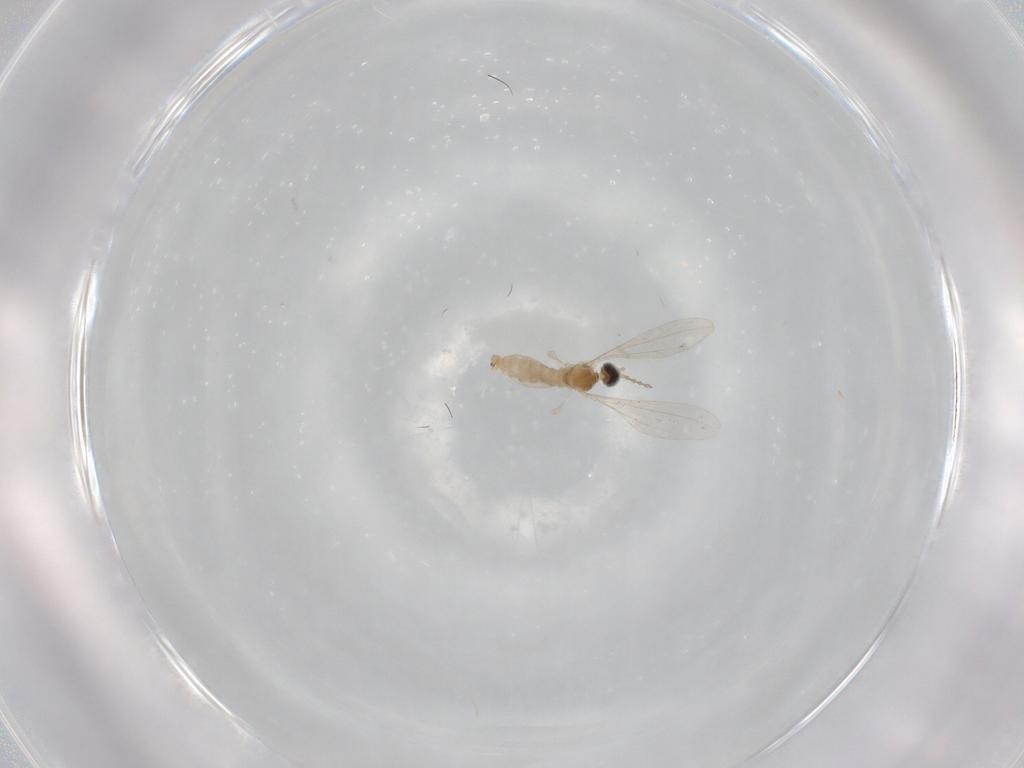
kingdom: Animalia
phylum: Arthropoda
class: Insecta
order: Diptera
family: Cecidomyiidae
